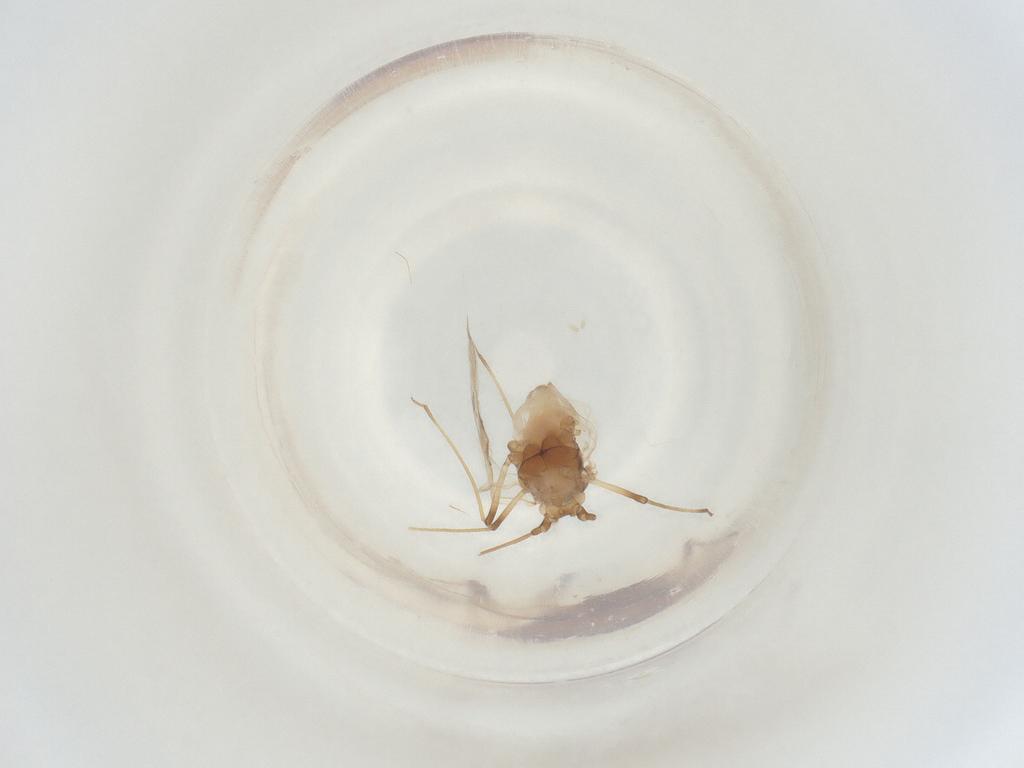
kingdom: Animalia
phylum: Arthropoda
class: Insecta
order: Hemiptera
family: Aphididae
